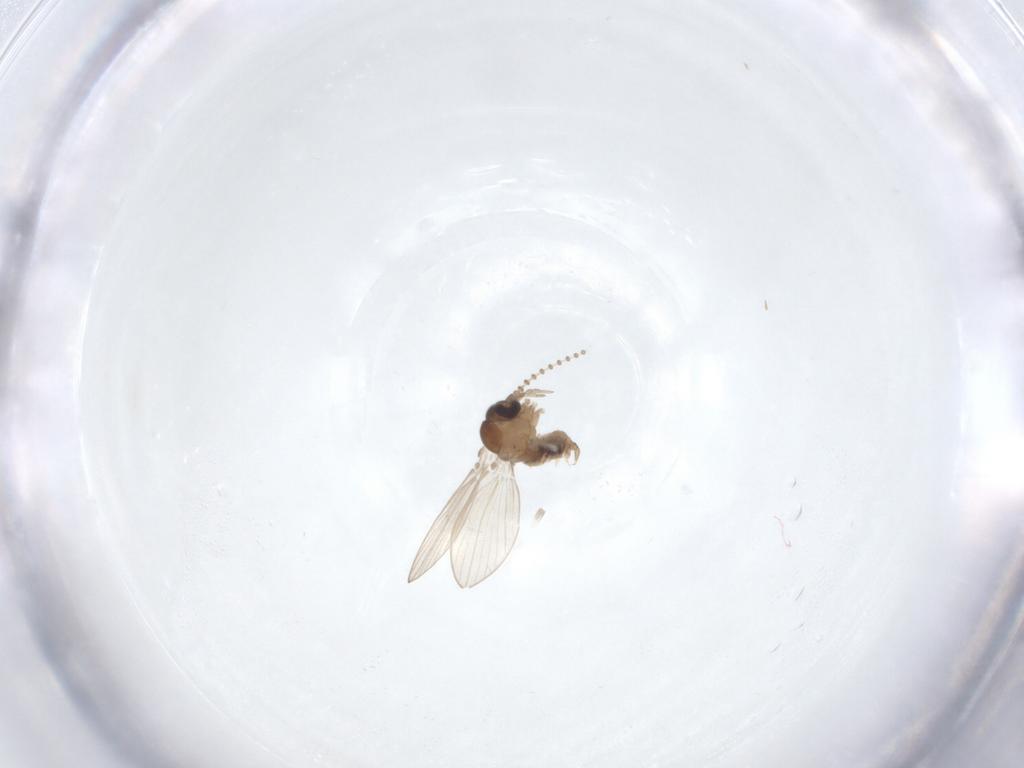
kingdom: Animalia
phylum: Arthropoda
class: Insecta
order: Diptera
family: Psychodidae
